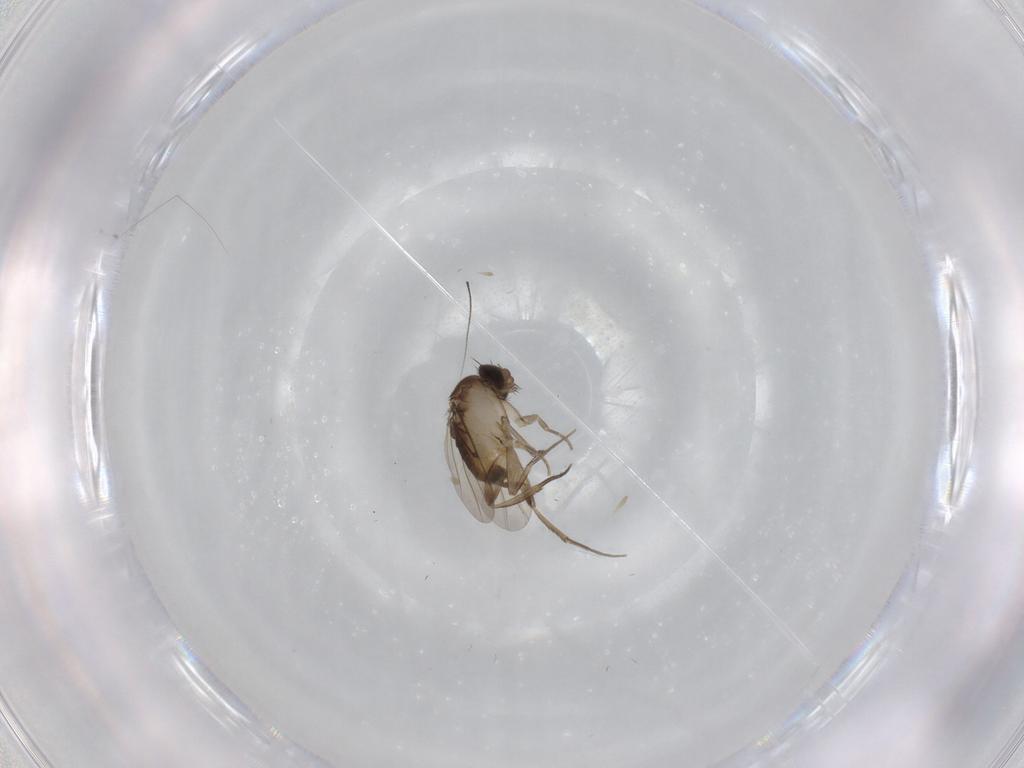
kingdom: Animalia
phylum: Arthropoda
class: Insecta
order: Diptera
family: Phoridae
